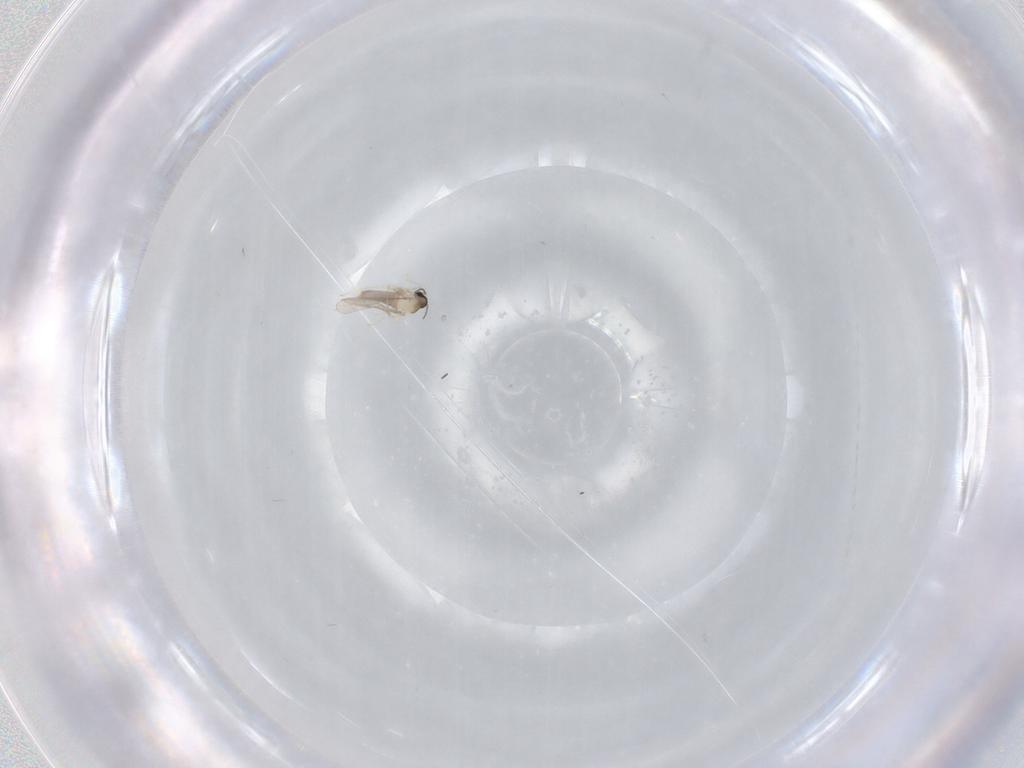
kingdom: Animalia
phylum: Arthropoda
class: Insecta
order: Diptera
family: Cecidomyiidae
